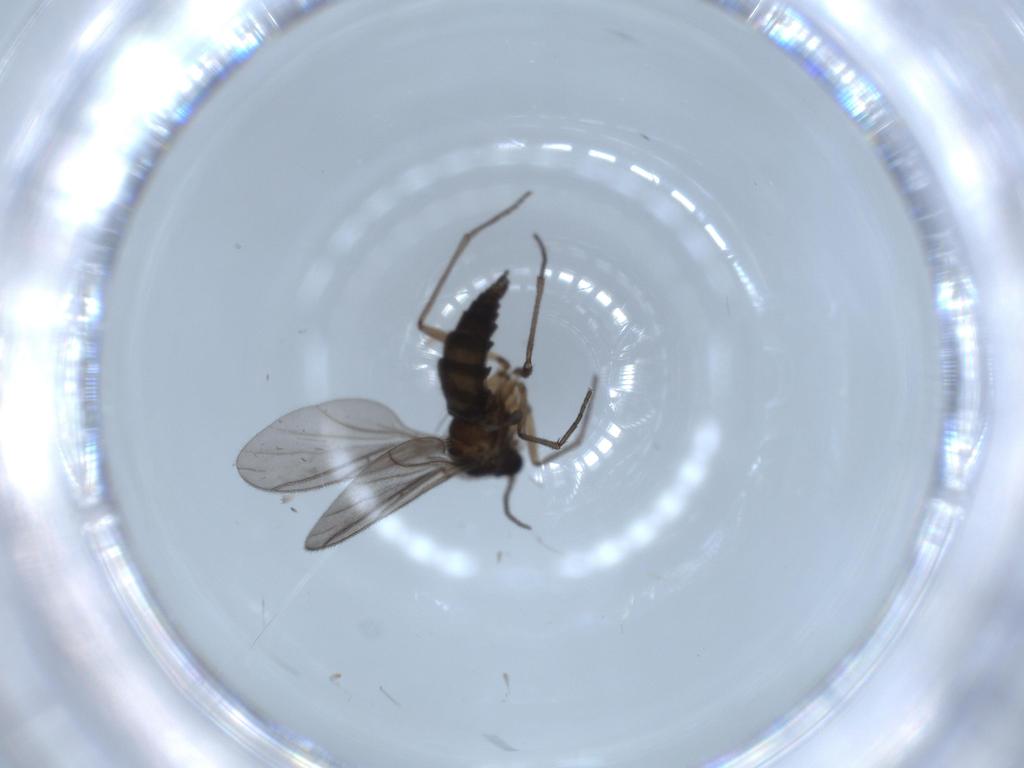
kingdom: Animalia
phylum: Arthropoda
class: Insecta
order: Diptera
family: Sciaridae
